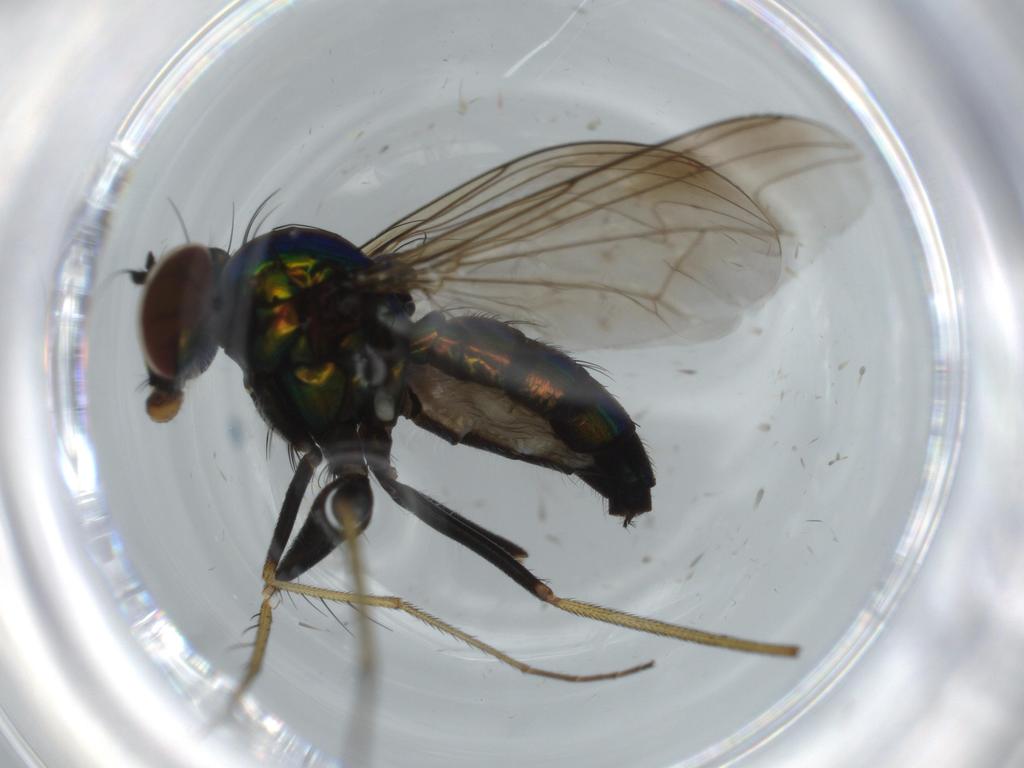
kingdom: Animalia
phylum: Arthropoda
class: Insecta
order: Diptera
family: Dolichopodidae
